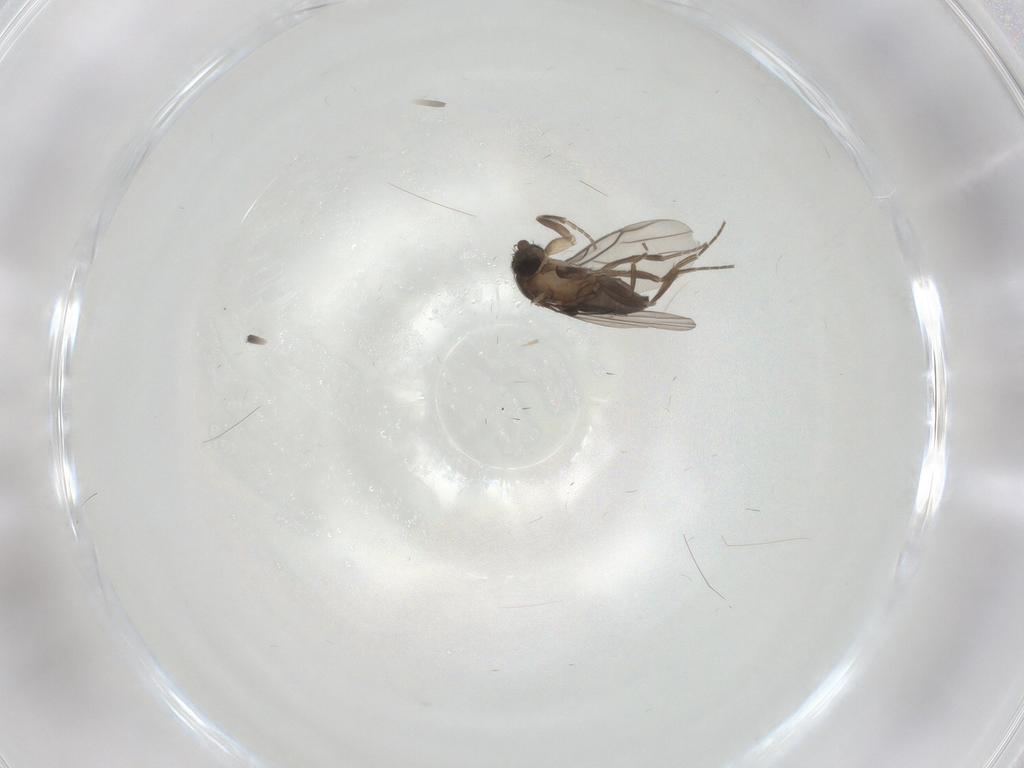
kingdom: Animalia
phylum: Arthropoda
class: Insecta
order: Diptera
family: Phoridae
